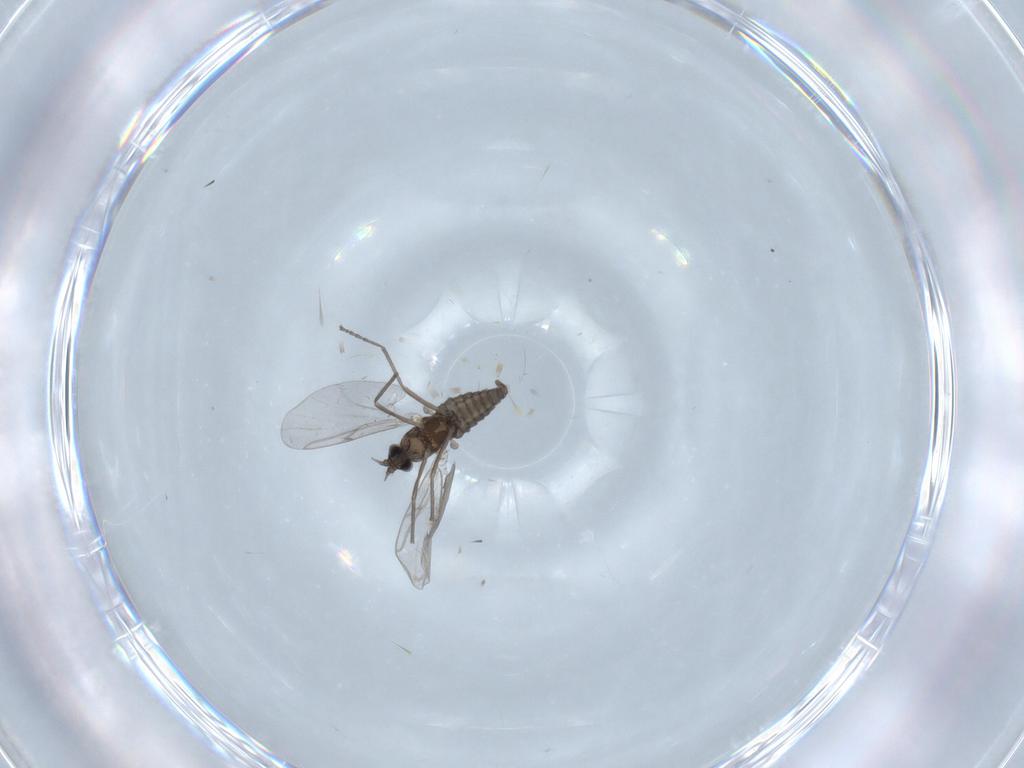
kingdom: Animalia
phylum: Arthropoda
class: Insecta
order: Diptera
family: Cecidomyiidae
